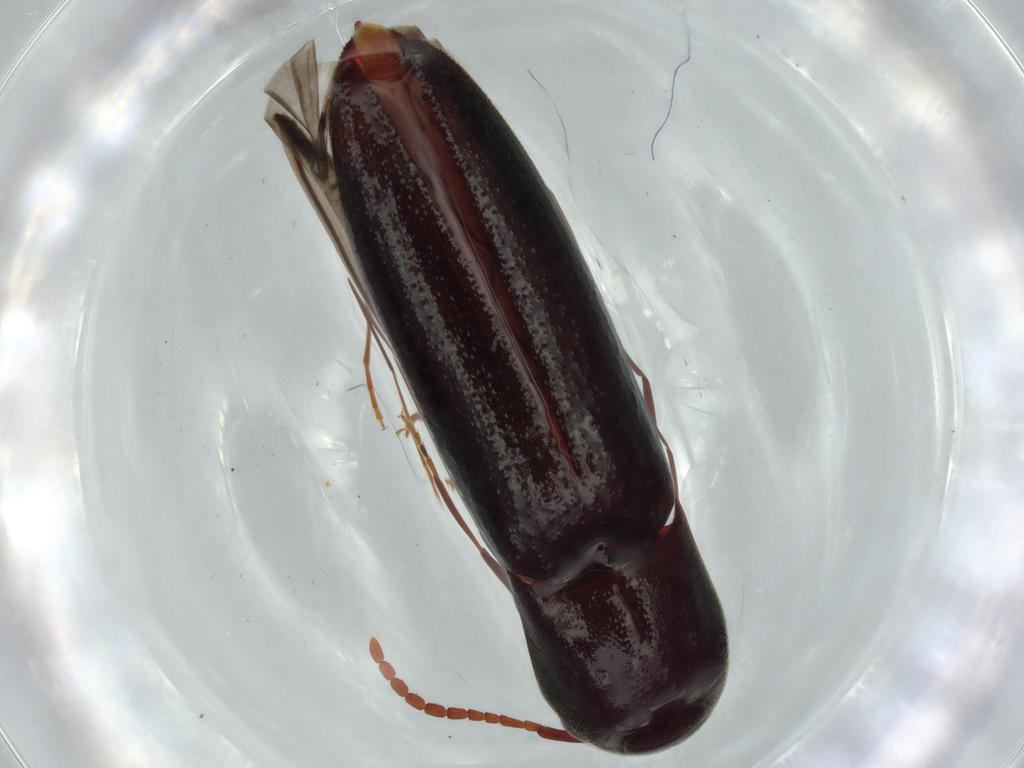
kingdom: Animalia
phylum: Arthropoda
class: Insecta
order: Coleoptera
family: Eucnemidae
